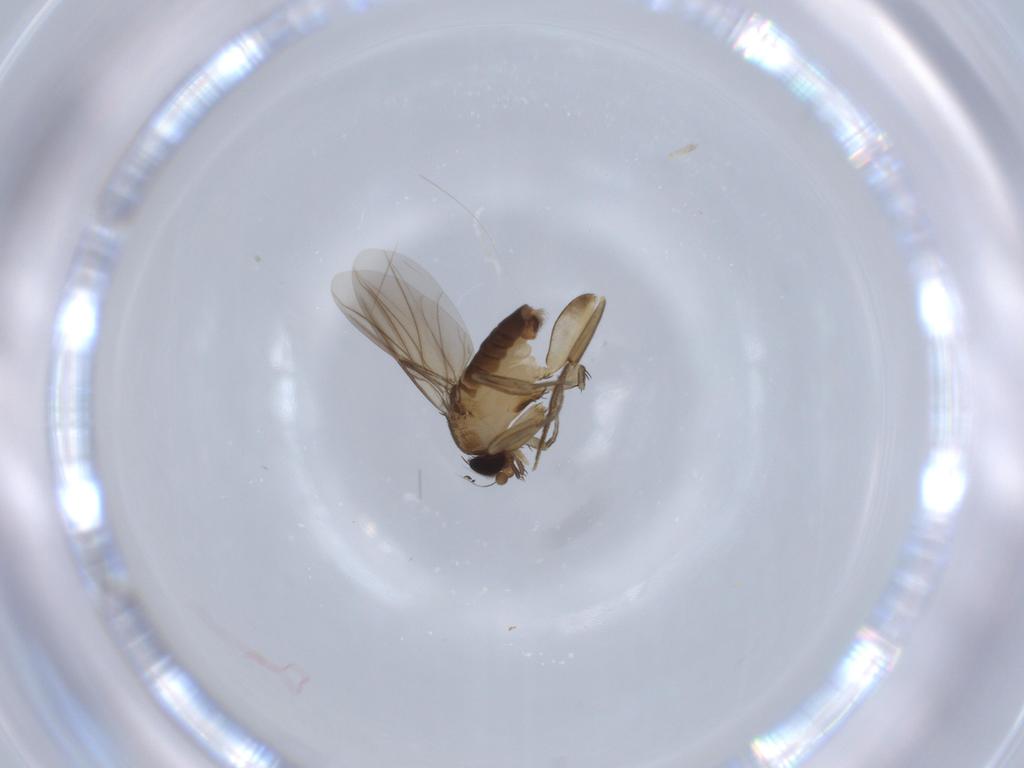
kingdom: Animalia
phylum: Arthropoda
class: Insecta
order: Diptera
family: Phoridae
